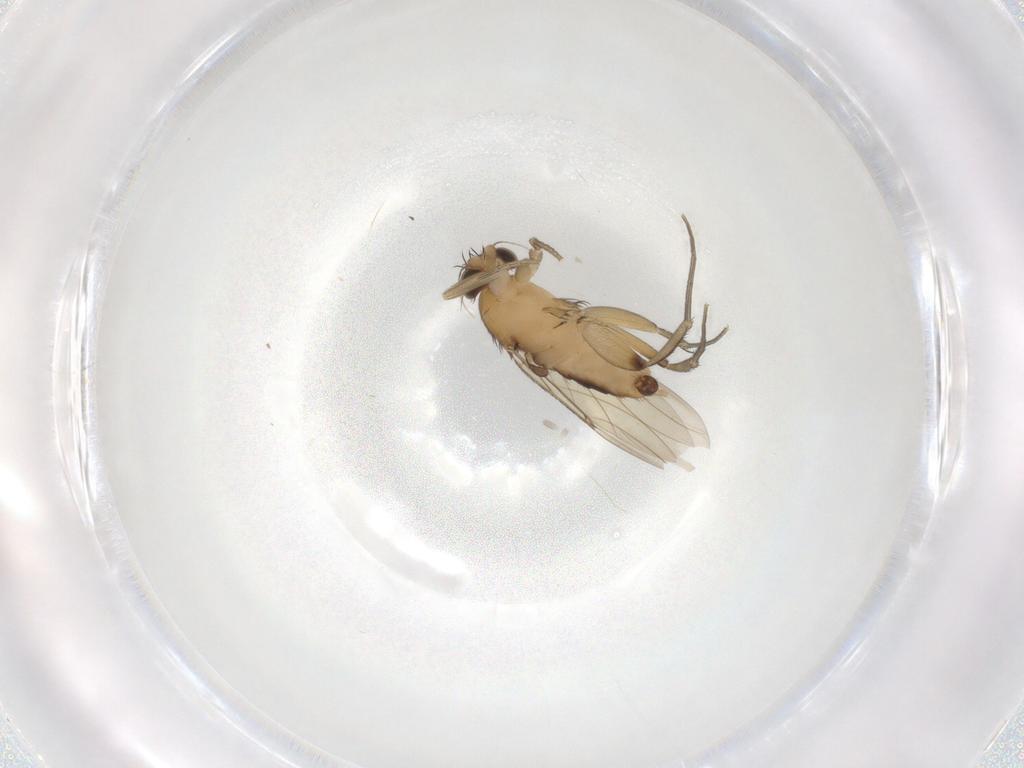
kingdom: Animalia
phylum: Arthropoda
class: Insecta
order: Diptera
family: Phoridae
